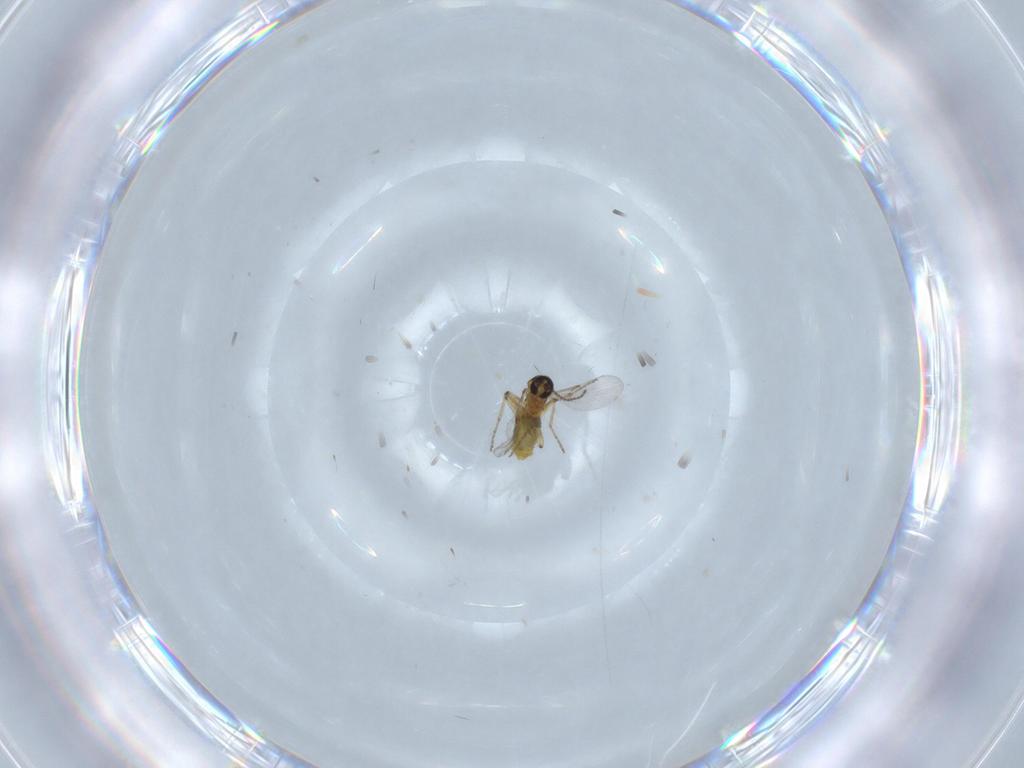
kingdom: Animalia
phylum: Arthropoda
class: Insecta
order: Diptera
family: Ceratopogonidae
